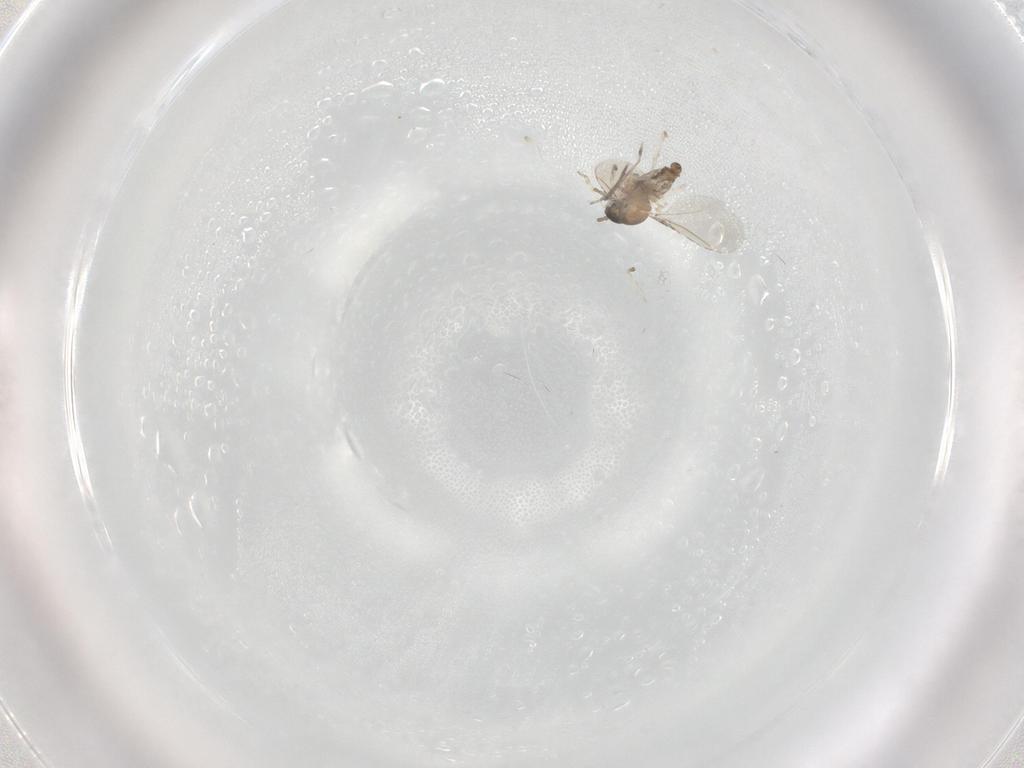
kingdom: Animalia
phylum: Arthropoda
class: Insecta
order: Diptera
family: Cecidomyiidae
